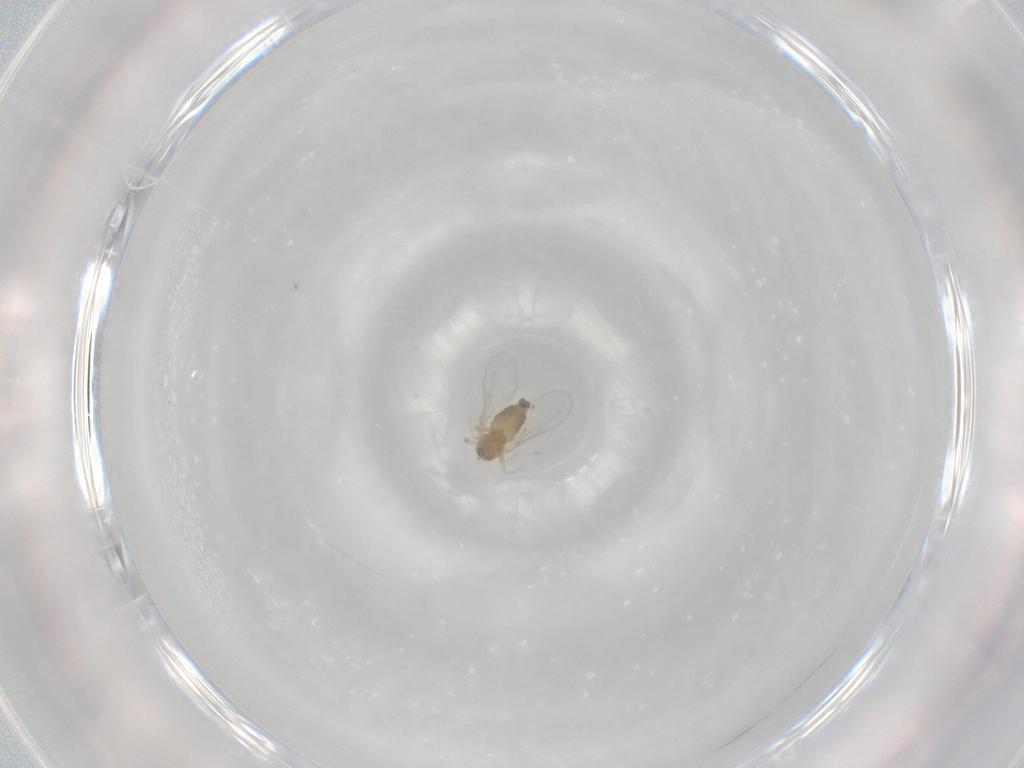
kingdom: Animalia
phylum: Arthropoda
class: Insecta
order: Diptera
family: Cecidomyiidae
